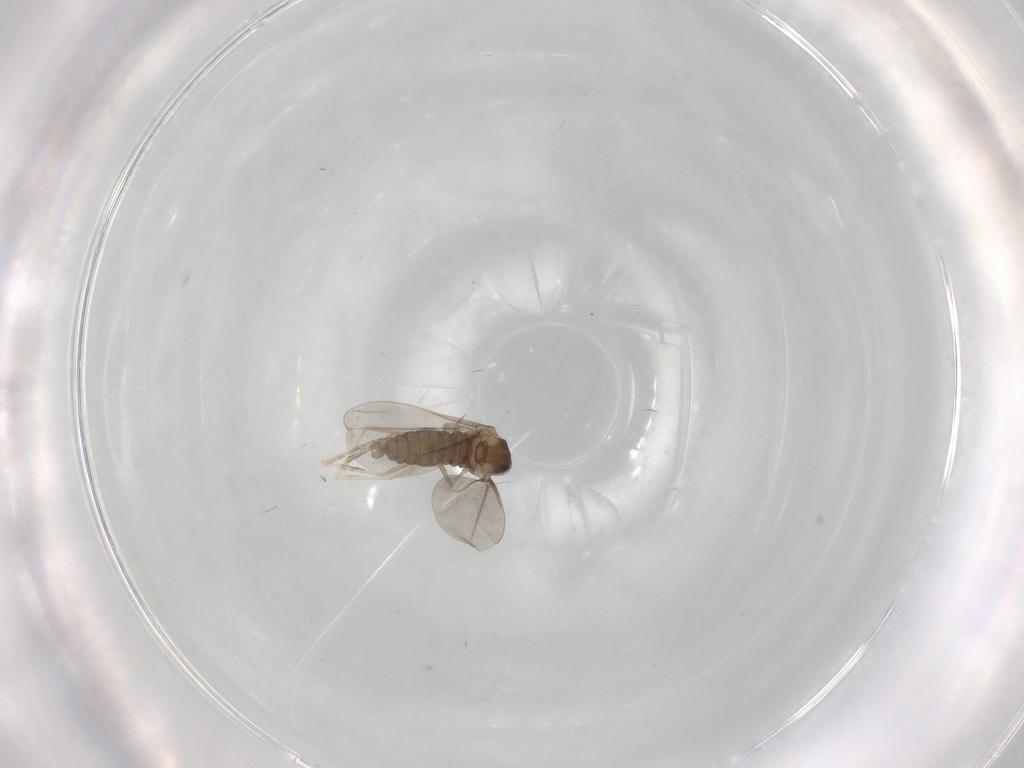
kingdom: Animalia
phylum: Arthropoda
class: Insecta
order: Diptera
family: Cecidomyiidae
